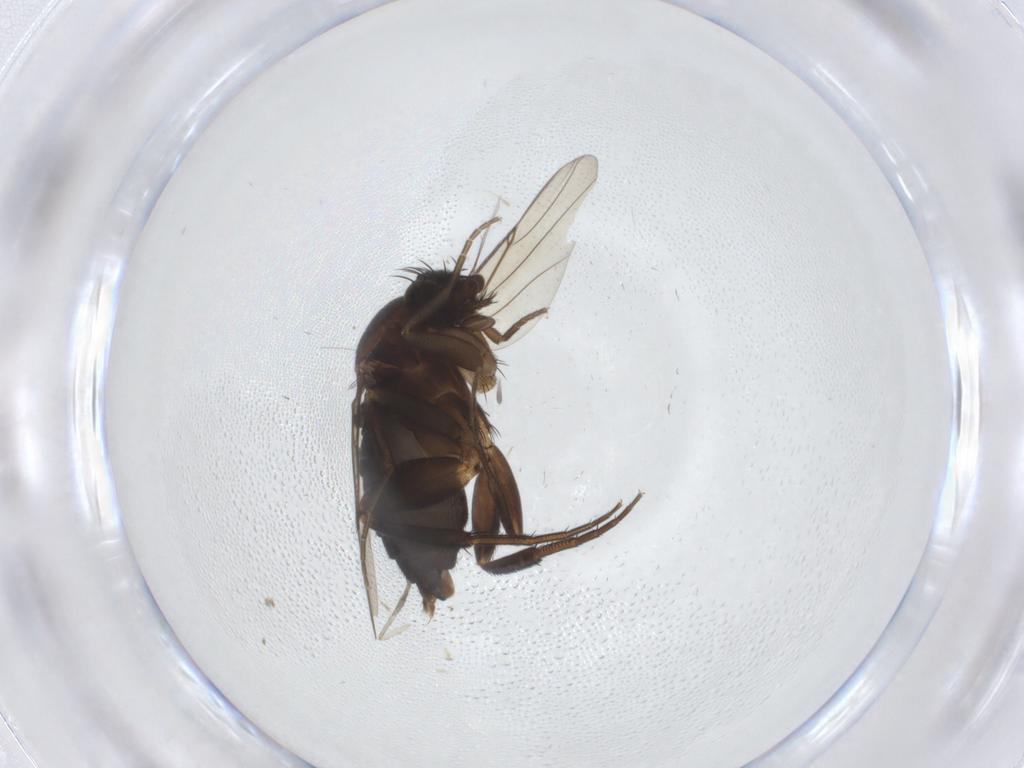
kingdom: Animalia
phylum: Arthropoda
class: Insecta
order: Diptera
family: Phoridae
